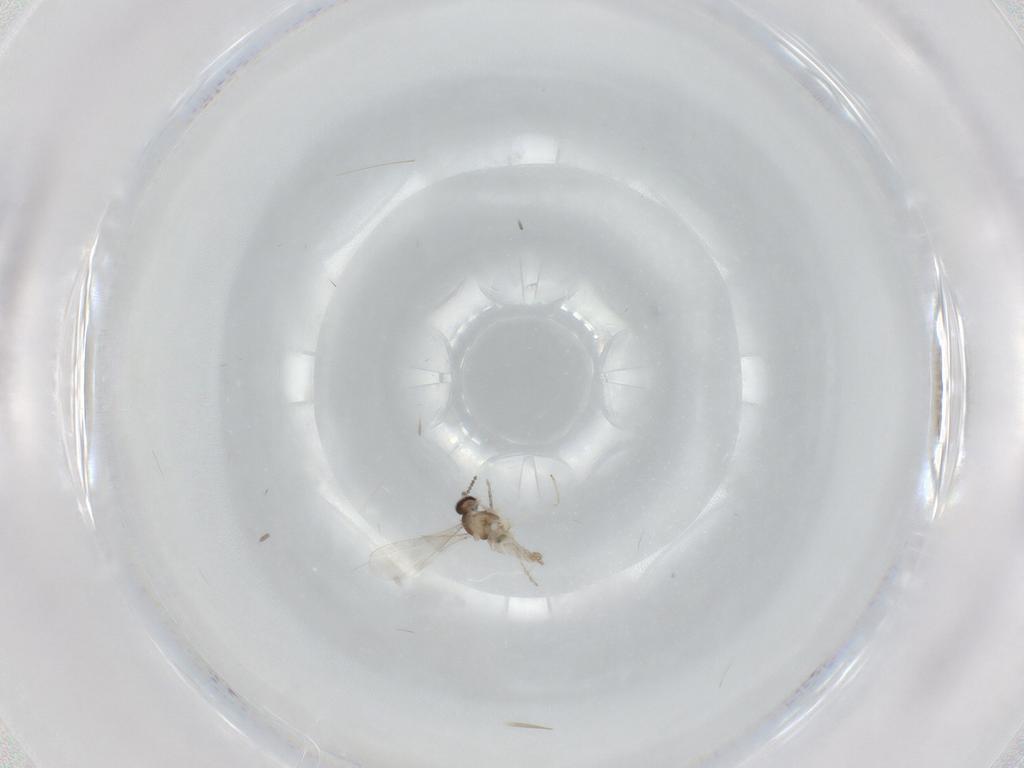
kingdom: Animalia
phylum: Arthropoda
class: Insecta
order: Diptera
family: Cecidomyiidae
